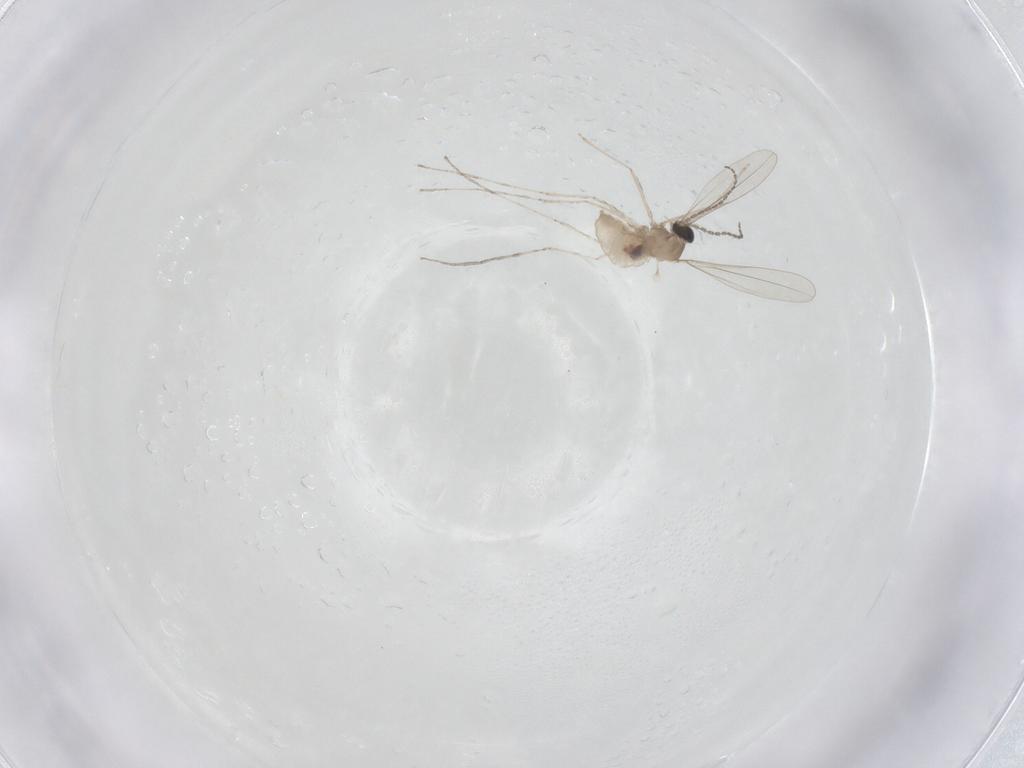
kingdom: Animalia
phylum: Arthropoda
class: Insecta
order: Diptera
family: Cecidomyiidae
